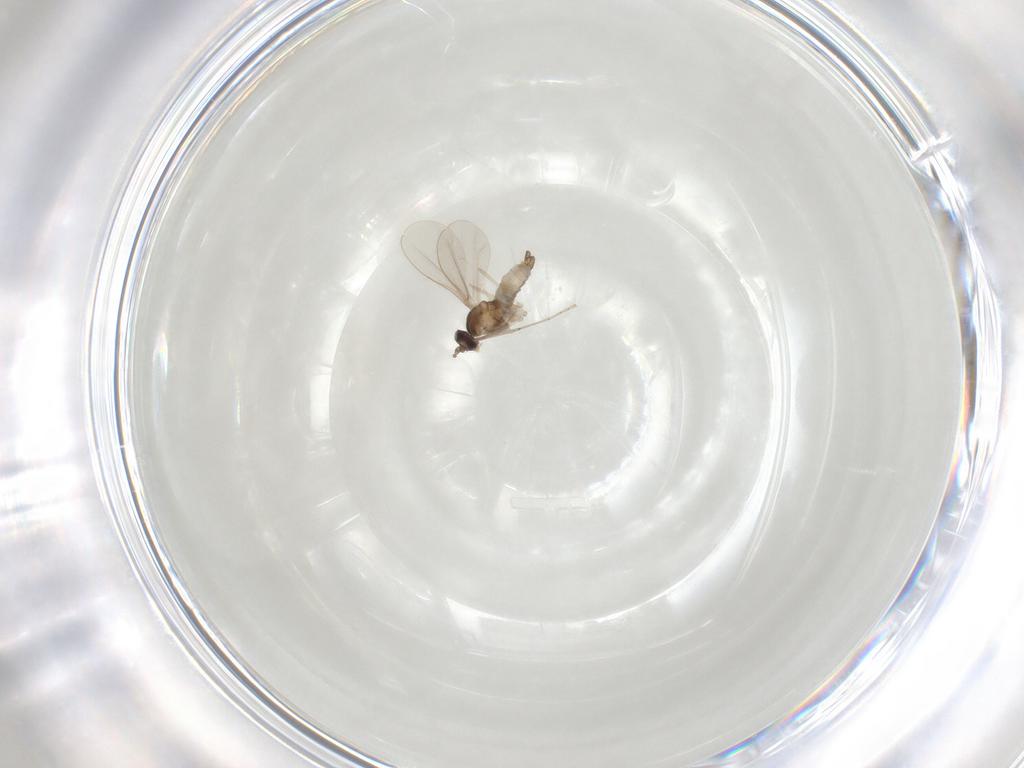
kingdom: Animalia
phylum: Arthropoda
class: Insecta
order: Diptera
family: Cecidomyiidae
